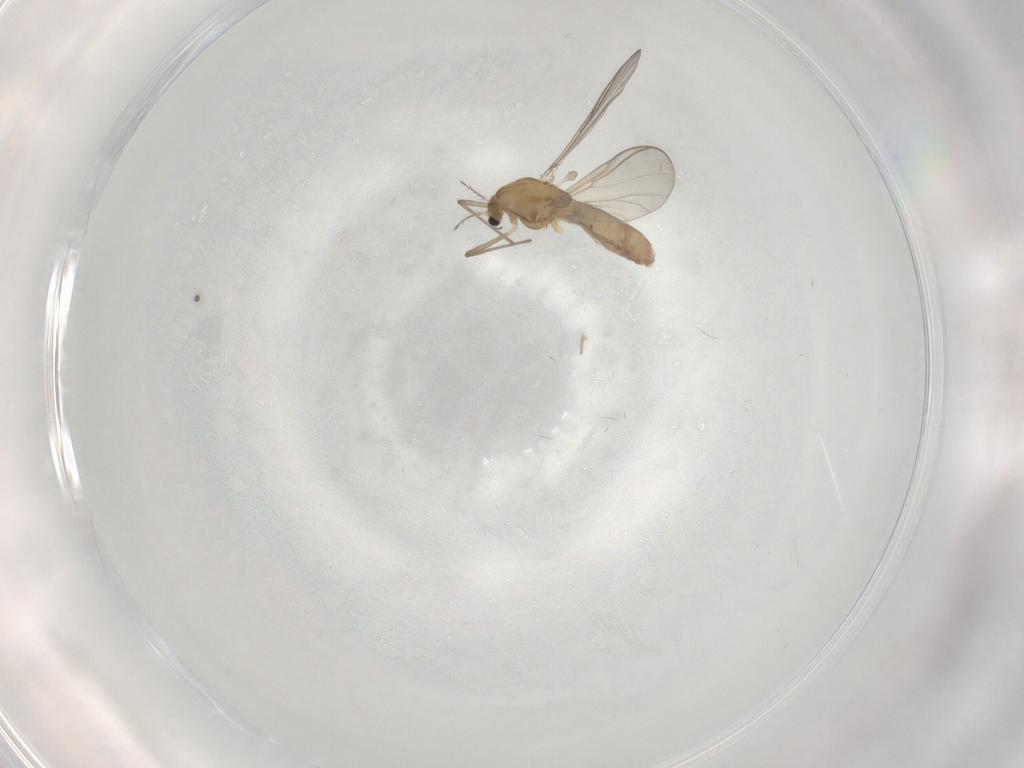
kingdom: Animalia
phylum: Arthropoda
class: Insecta
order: Diptera
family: Chironomidae
